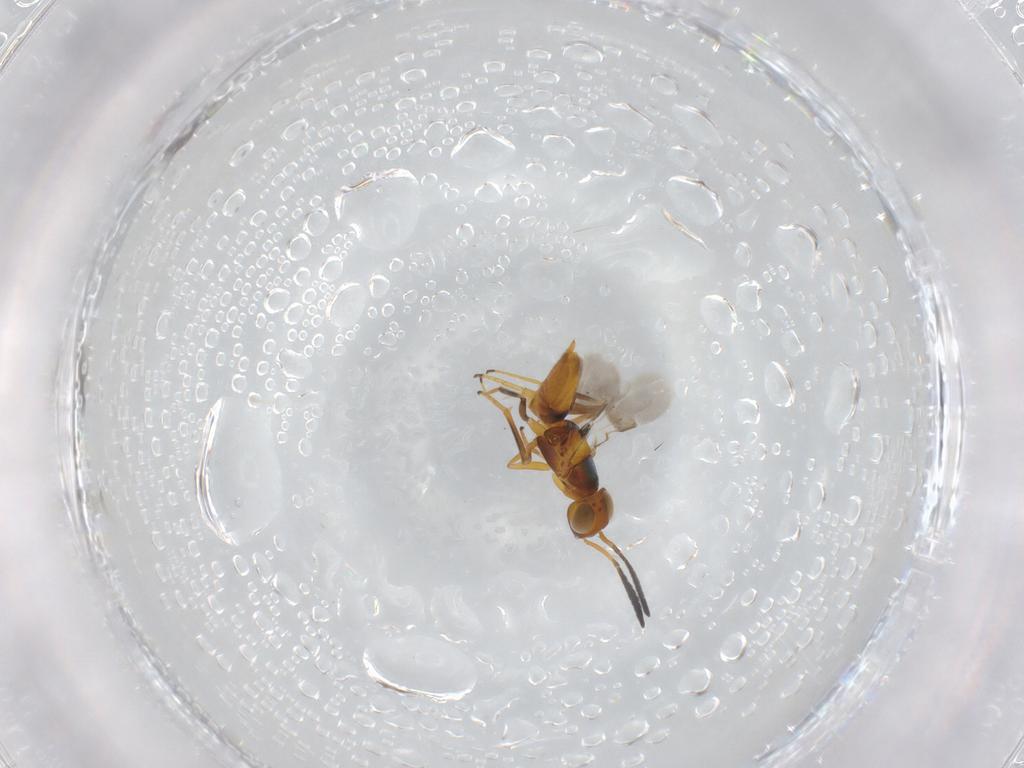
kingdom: Animalia
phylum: Arthropoda
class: Insecta
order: Hymenoptera
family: Encyrtidae
